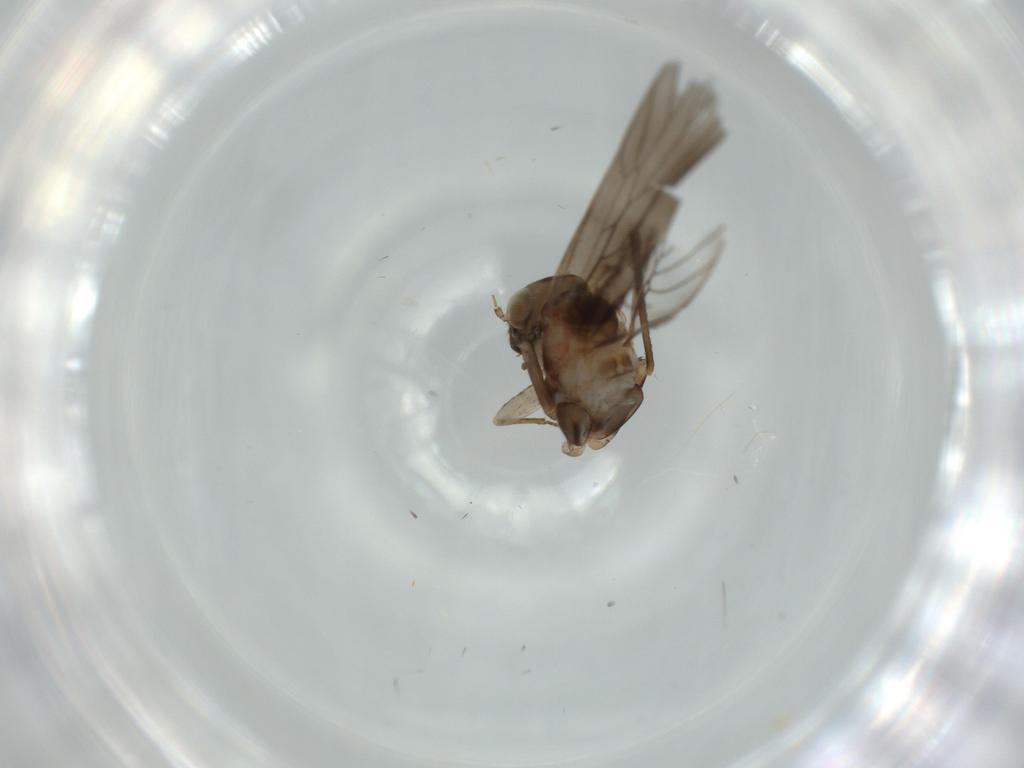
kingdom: Animalia
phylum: Arthropoda
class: Insecta
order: Psocodea
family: Lepidopsocidae
